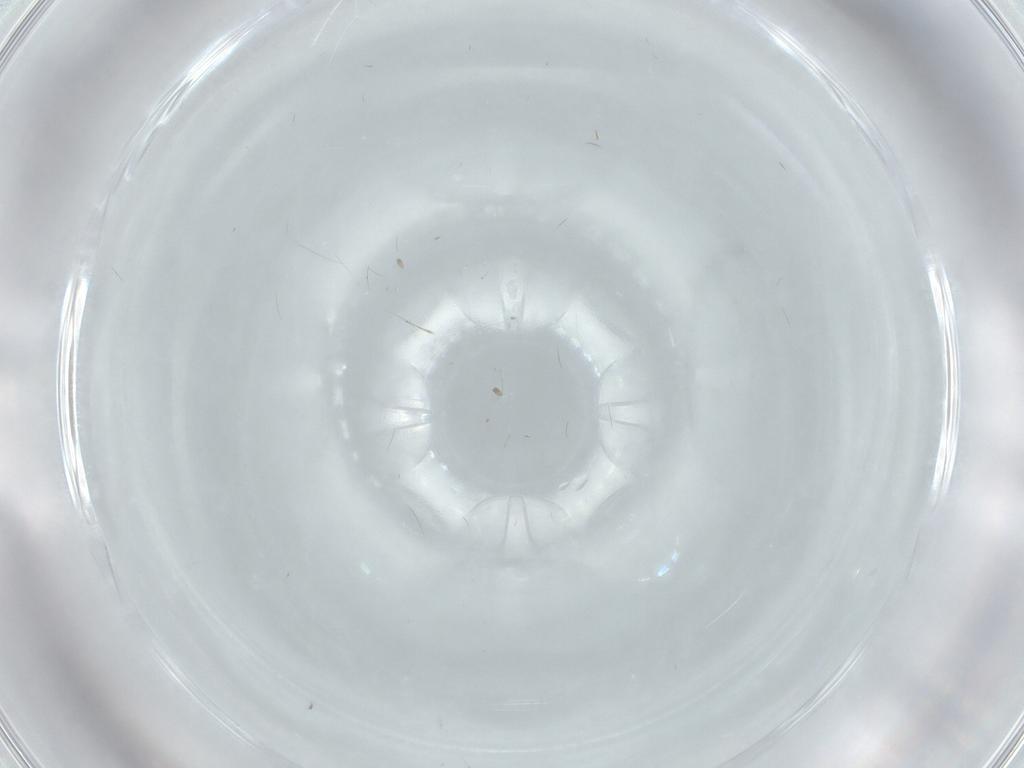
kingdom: Animalia
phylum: Arthropoda
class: Insecta
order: Diptera
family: Cecidomyiidae
